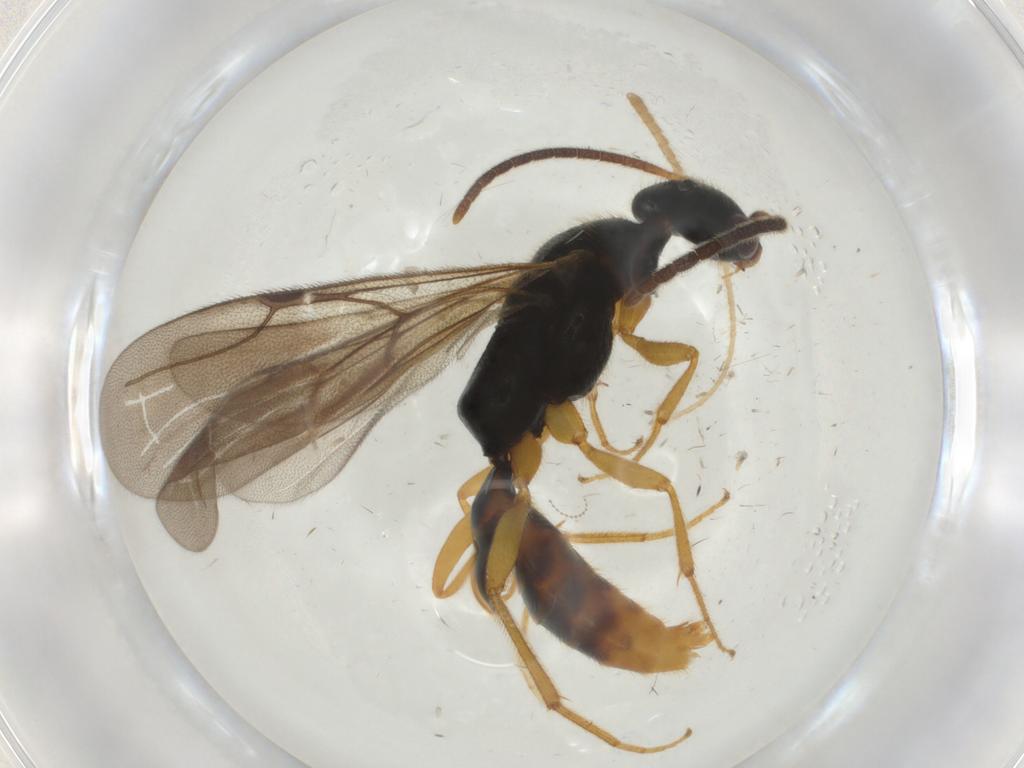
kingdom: Animalia
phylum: Arthropoda
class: Insecta
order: Hymenoptera
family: Bethylidae
